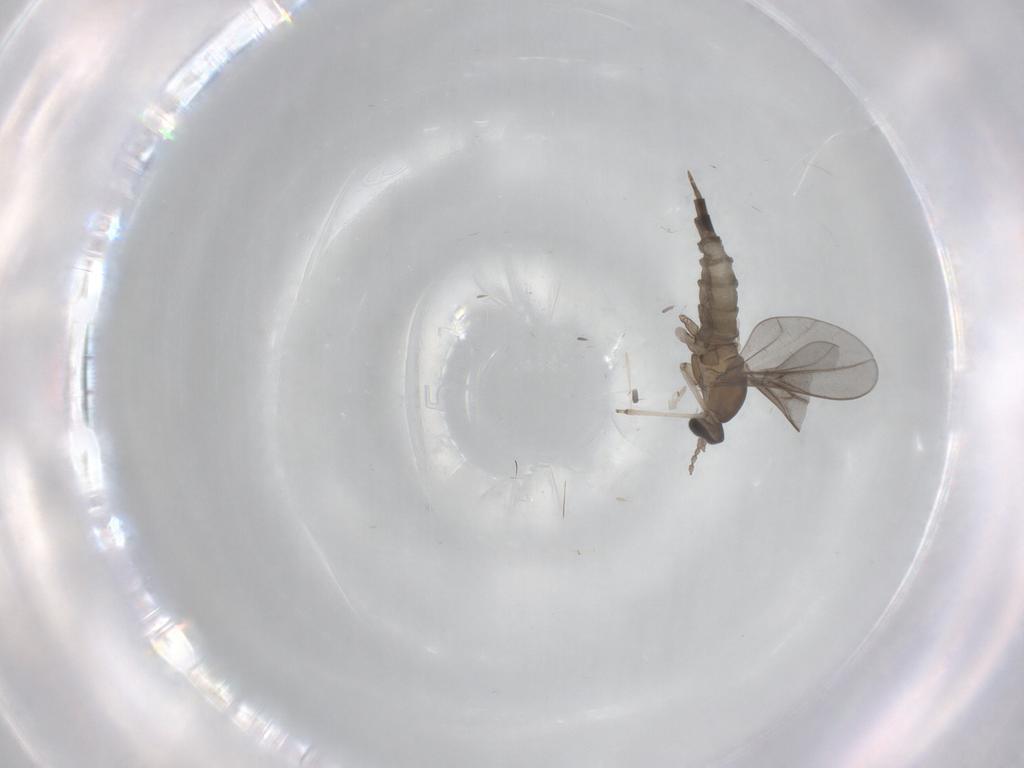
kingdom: Animalia
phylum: Arthropoda
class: Insecta
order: Diptera
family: Cecidomyiidae
